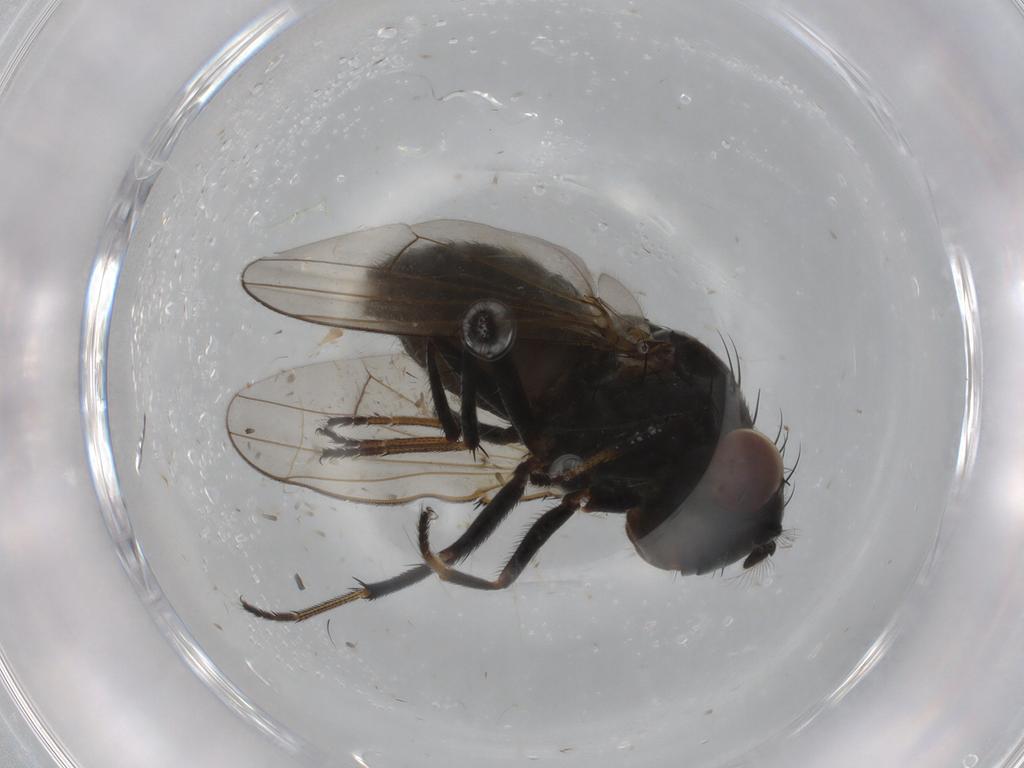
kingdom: Animalia
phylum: Arthropoda
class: Insecta
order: Diptera
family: Ephydridae
